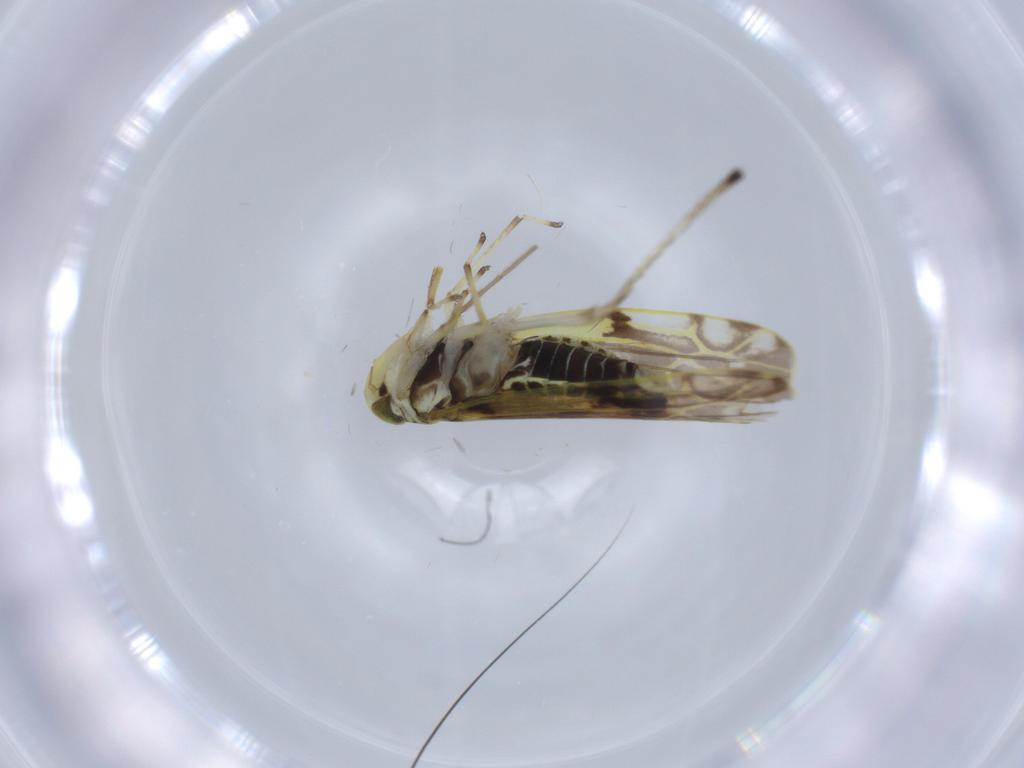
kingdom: Animalia
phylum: Arthropoda
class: Insecta
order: Hemiptera
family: Cicadellidae
